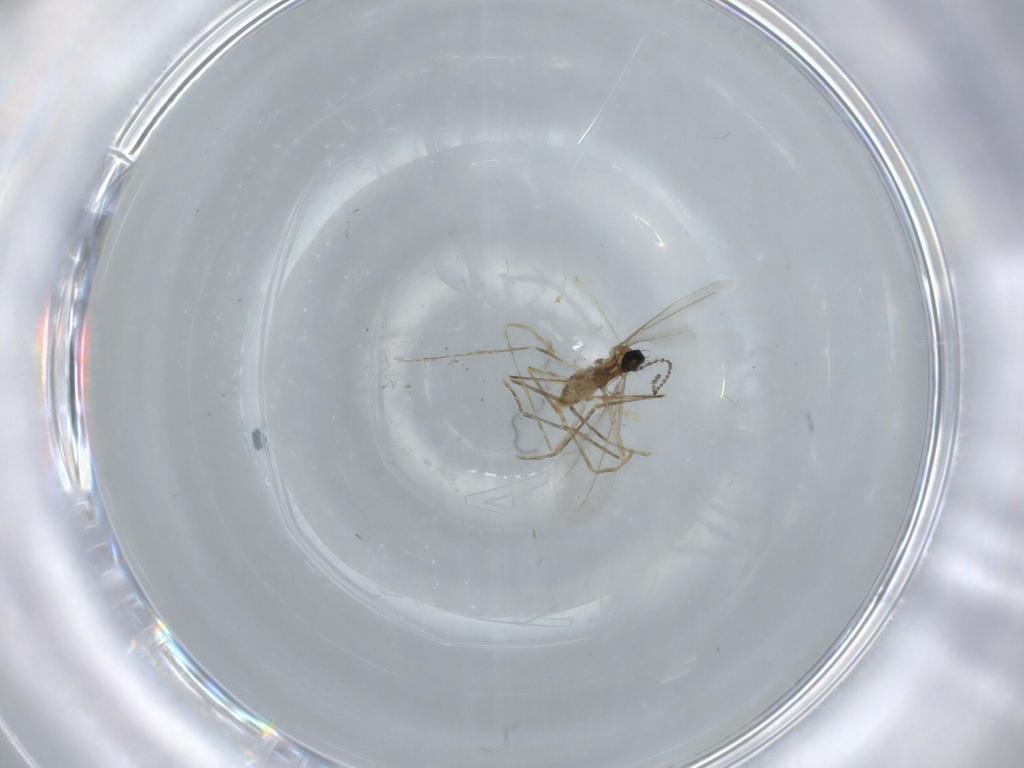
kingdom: Animalia
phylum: Arthropoda
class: Insecta
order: Diptera
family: Cecidomyiidae
